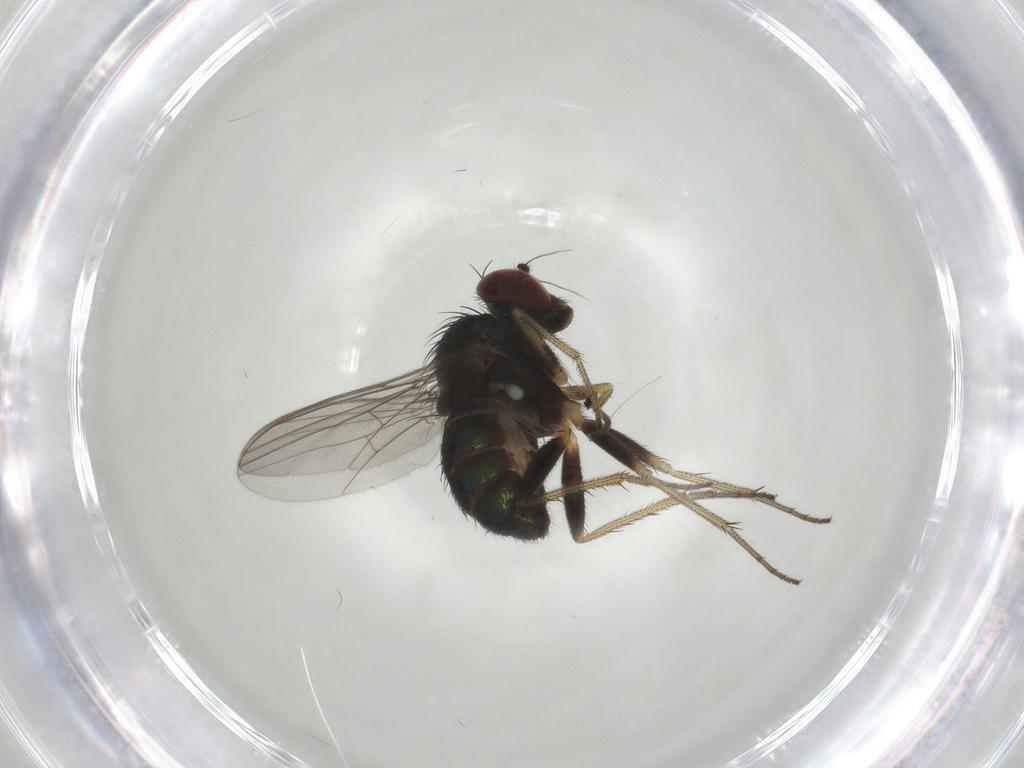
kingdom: Animalia
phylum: Arthropoda
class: Insecta
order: Diptera
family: Dolichopodidae
